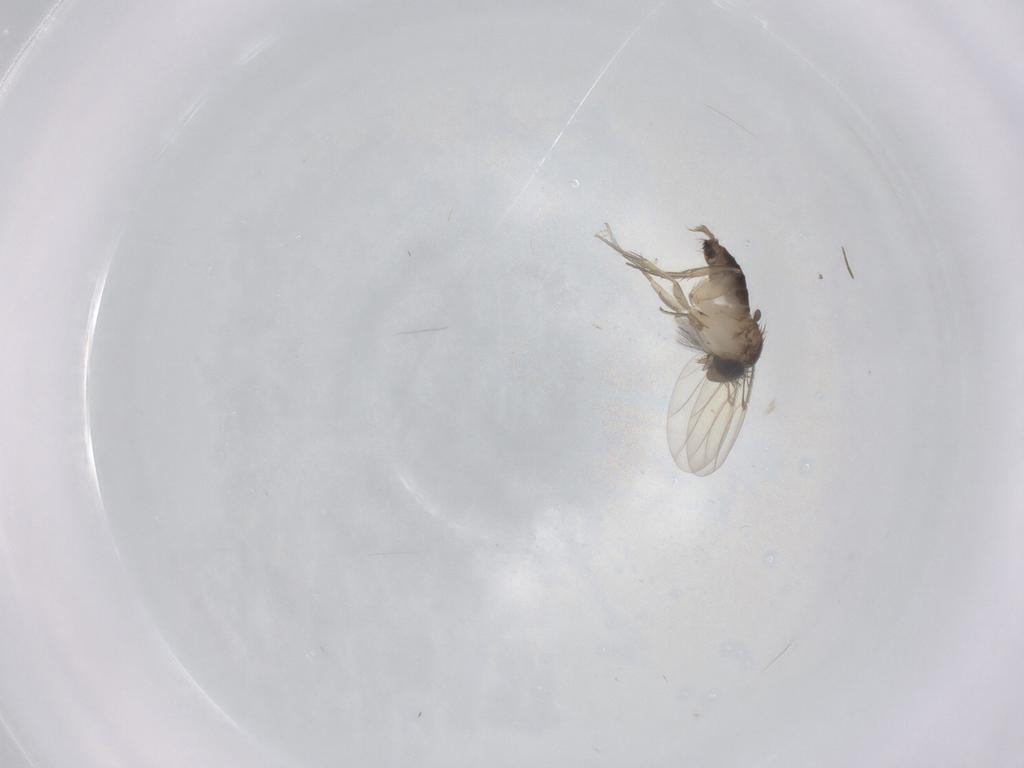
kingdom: Animalia
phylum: Arthropoda
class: Insecta
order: Diptera
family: Chironomidae
